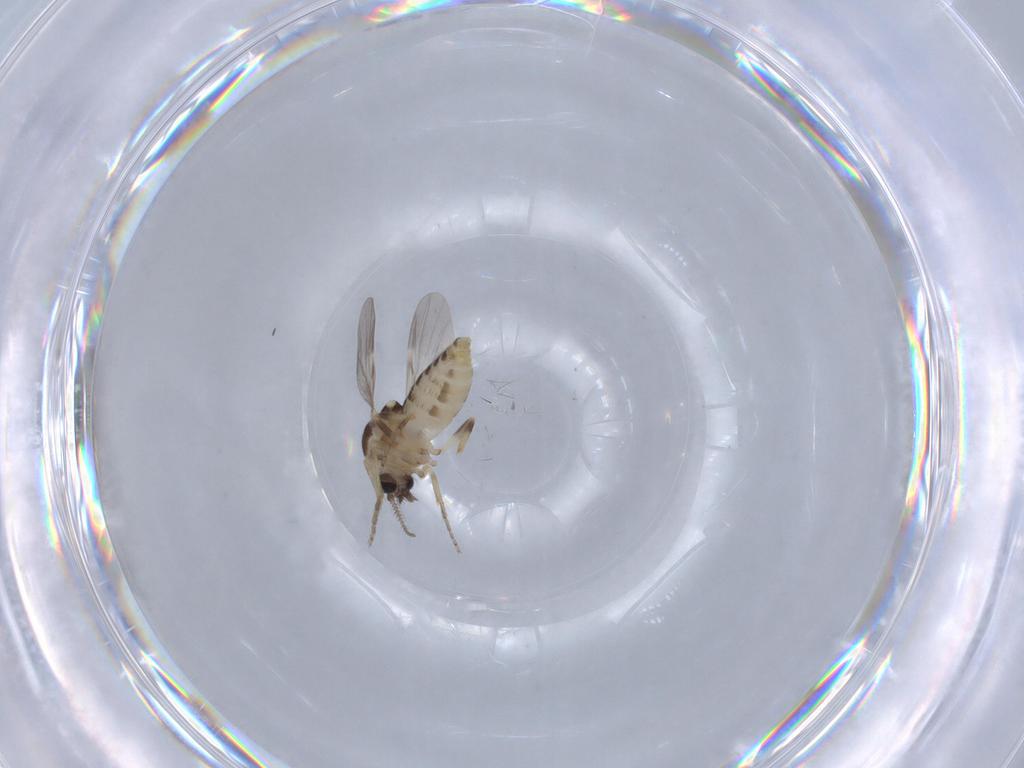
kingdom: Animalia
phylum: Arthropoda
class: Insecta
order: Diptera
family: Ceratopogonidae
